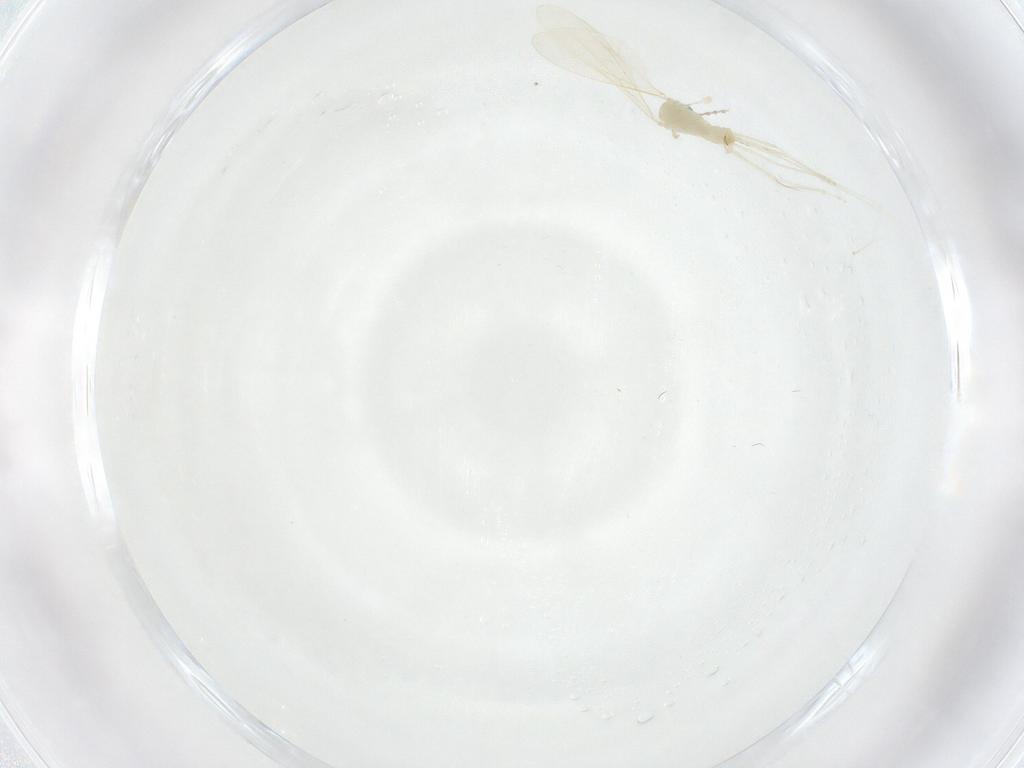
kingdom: Animalia
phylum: Arthropoda
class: Insecta
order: Diptera
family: Cecidomyiidae
